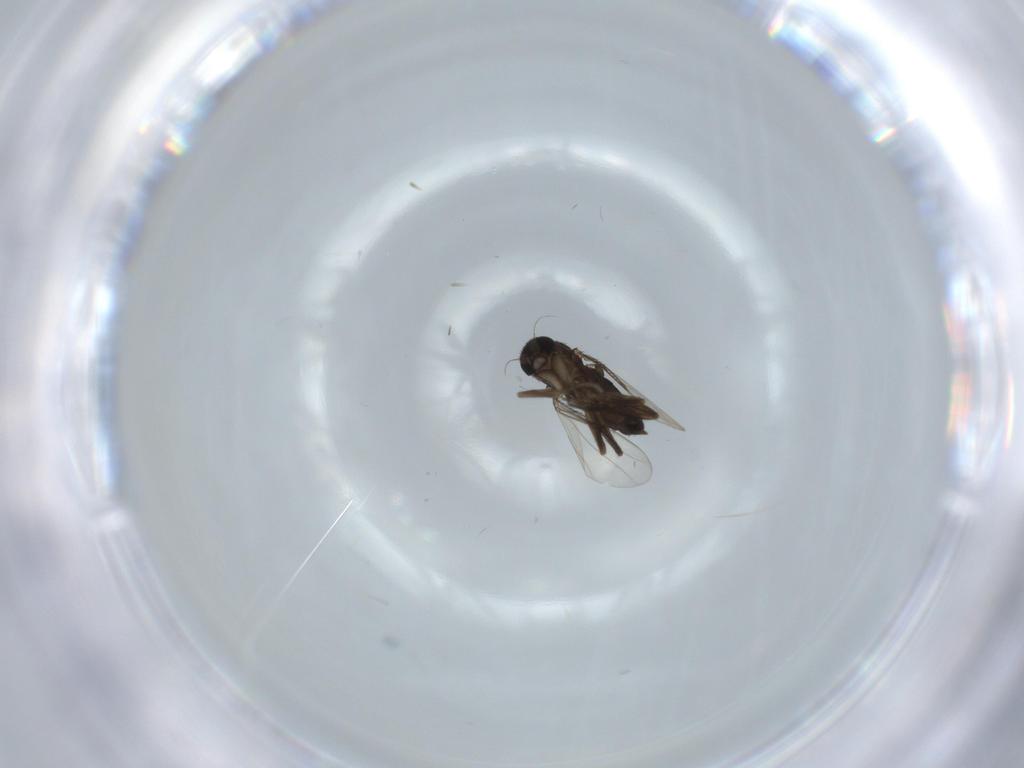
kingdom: Animalia
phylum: Arthropoda
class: Insecta
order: Diptera
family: Phoridae
